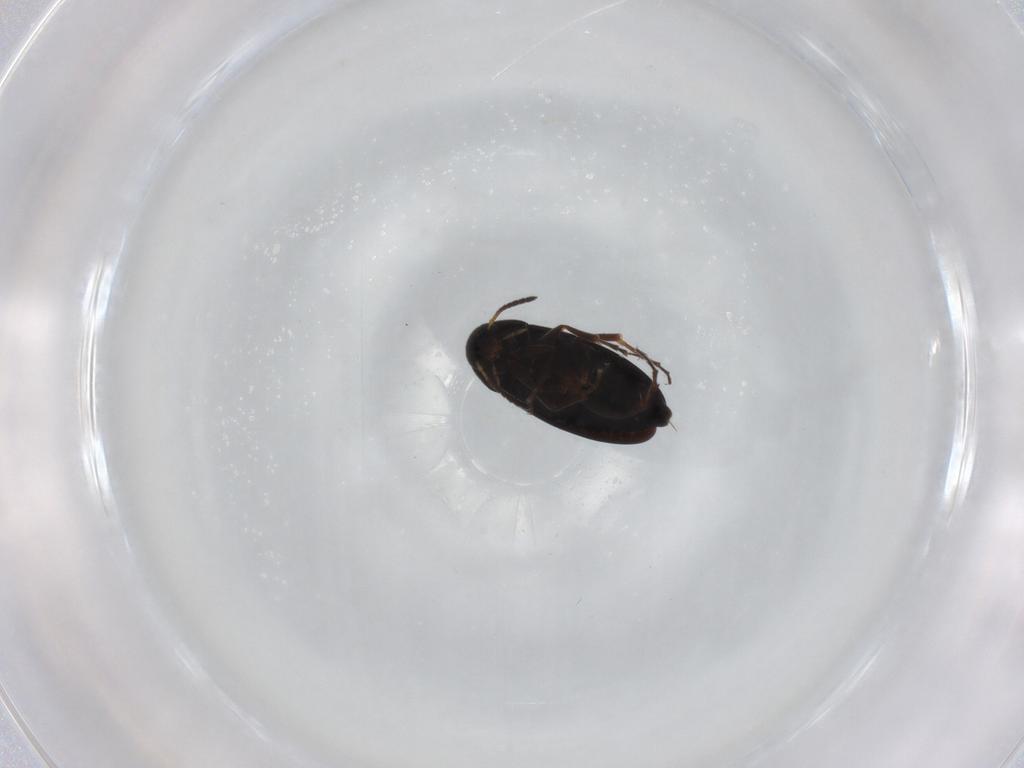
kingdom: Animalia
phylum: Arthropoda
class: Insecta
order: Coleoptera
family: Scraptiidae
